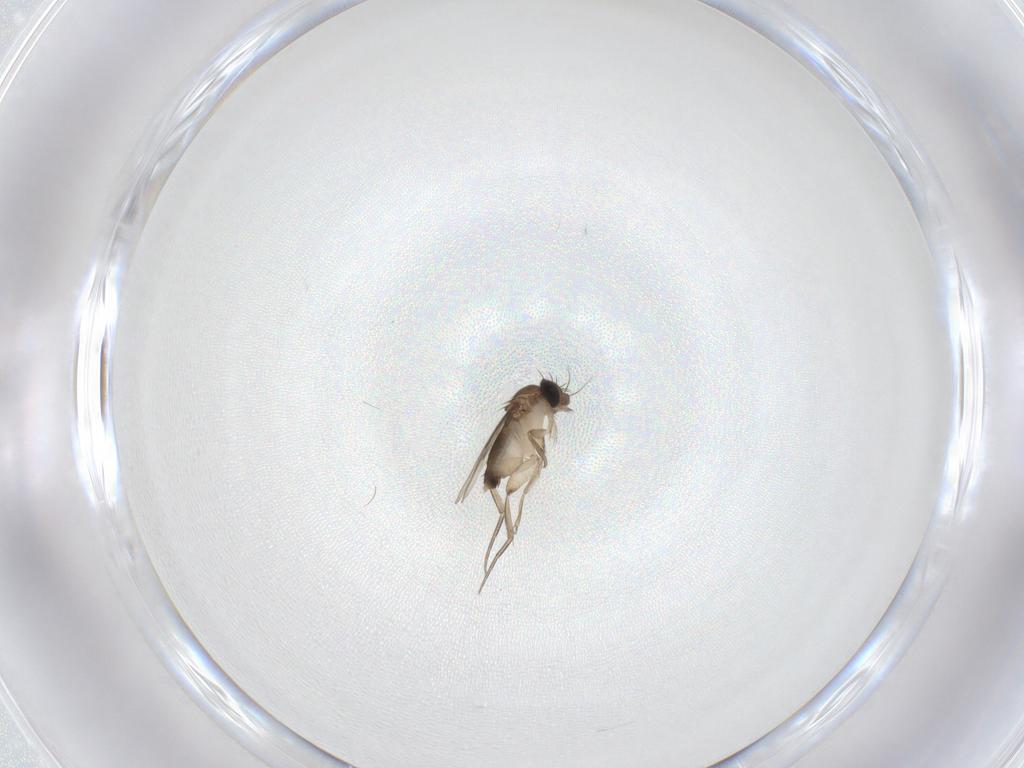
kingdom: Animalia
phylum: Arthropoda
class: Insecta
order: Diptera
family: Phoridae
